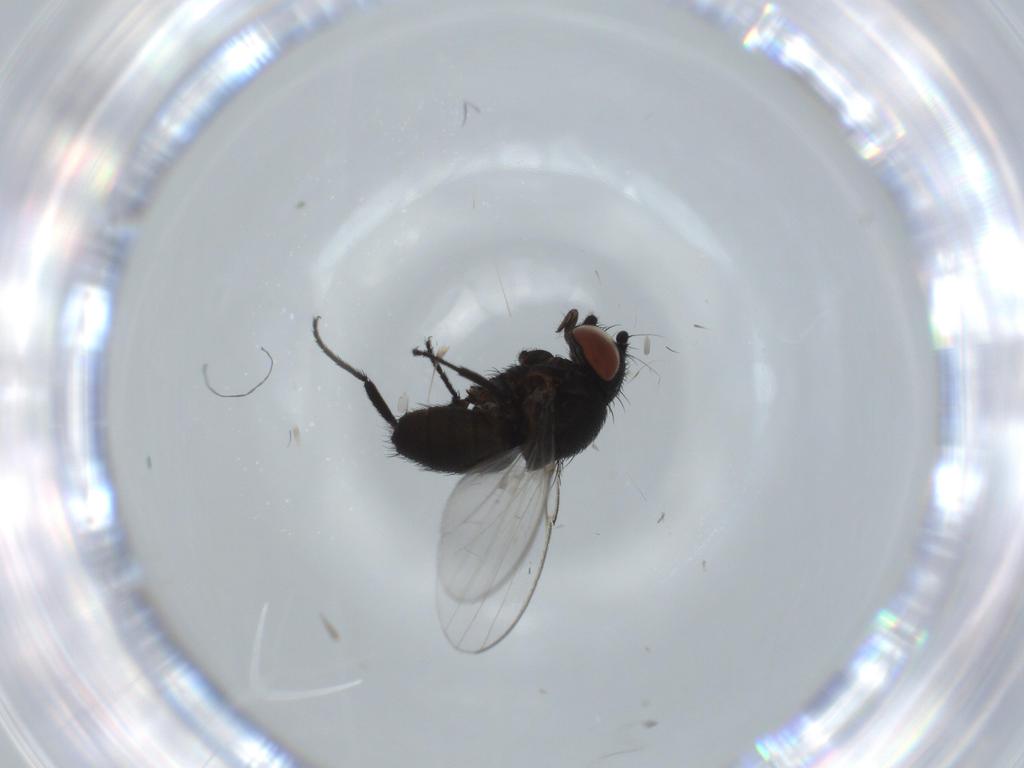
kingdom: Animalia
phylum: Arthropoda
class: Insecta
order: Diptera
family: Milichiidae
